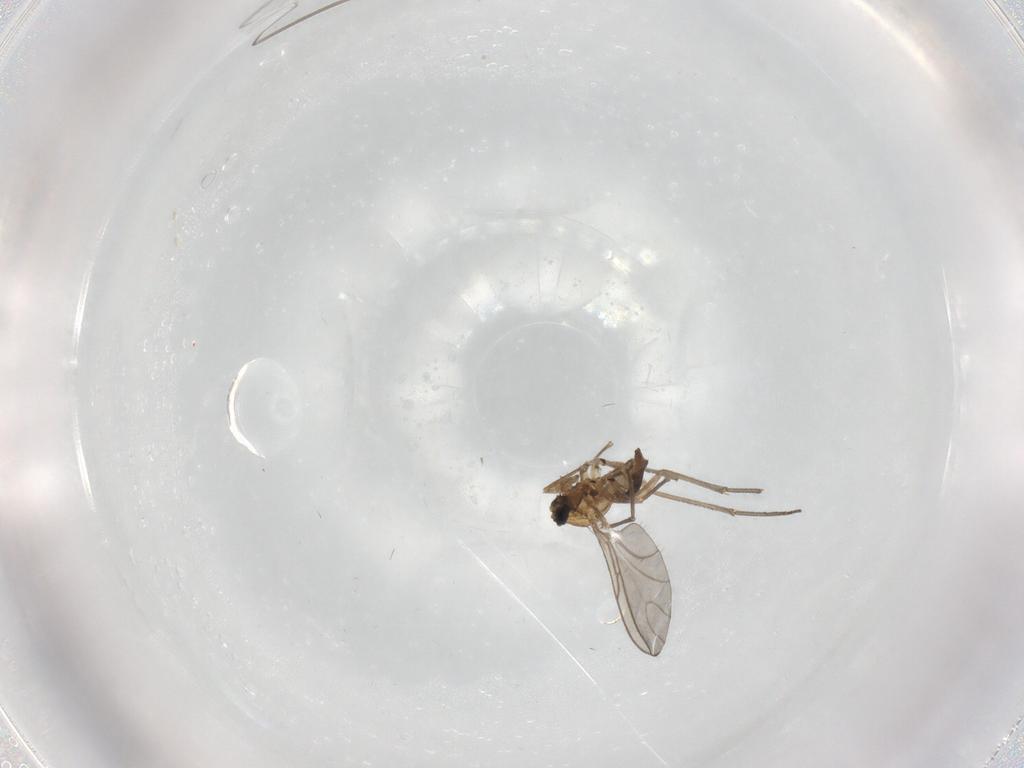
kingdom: Animalia
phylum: Arthropoda
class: Insecta
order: Diptera
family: Sciaridae
